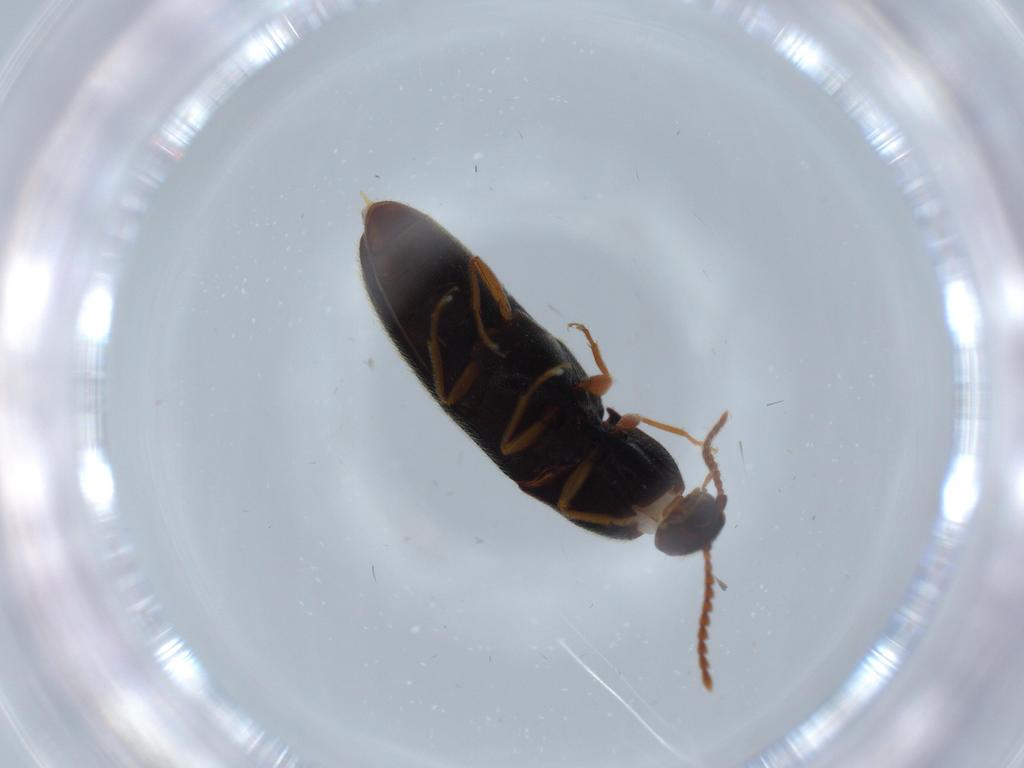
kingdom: Animalia
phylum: Arthropoda
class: Insecta
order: Coleoptera
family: Elateridae
